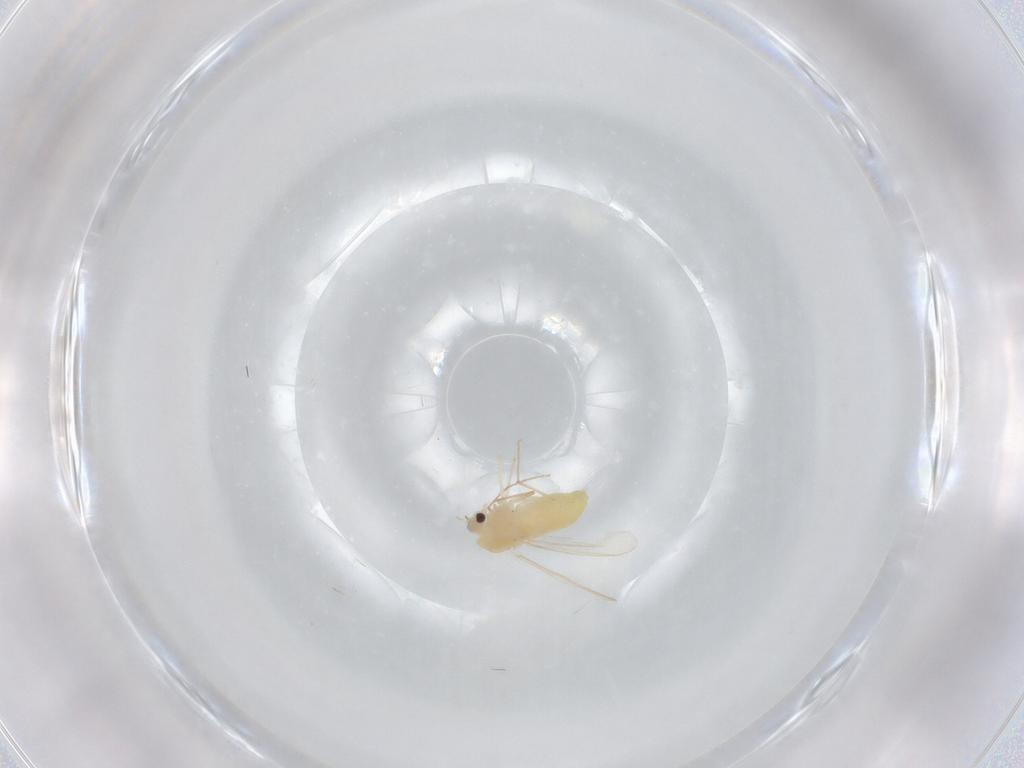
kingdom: Animalia
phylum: Arthropoda
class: Insecta
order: Diptera
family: Chironomidae
